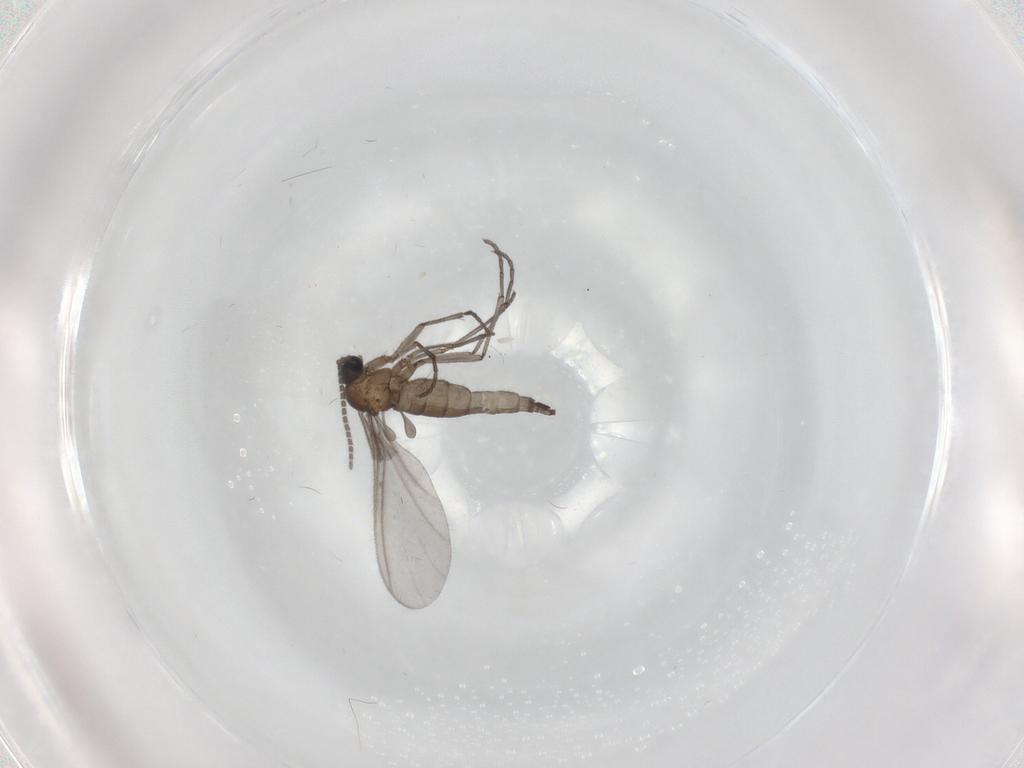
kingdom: Animalia
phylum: Arthropoda
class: Insecta
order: Diptera
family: Sciaridae
